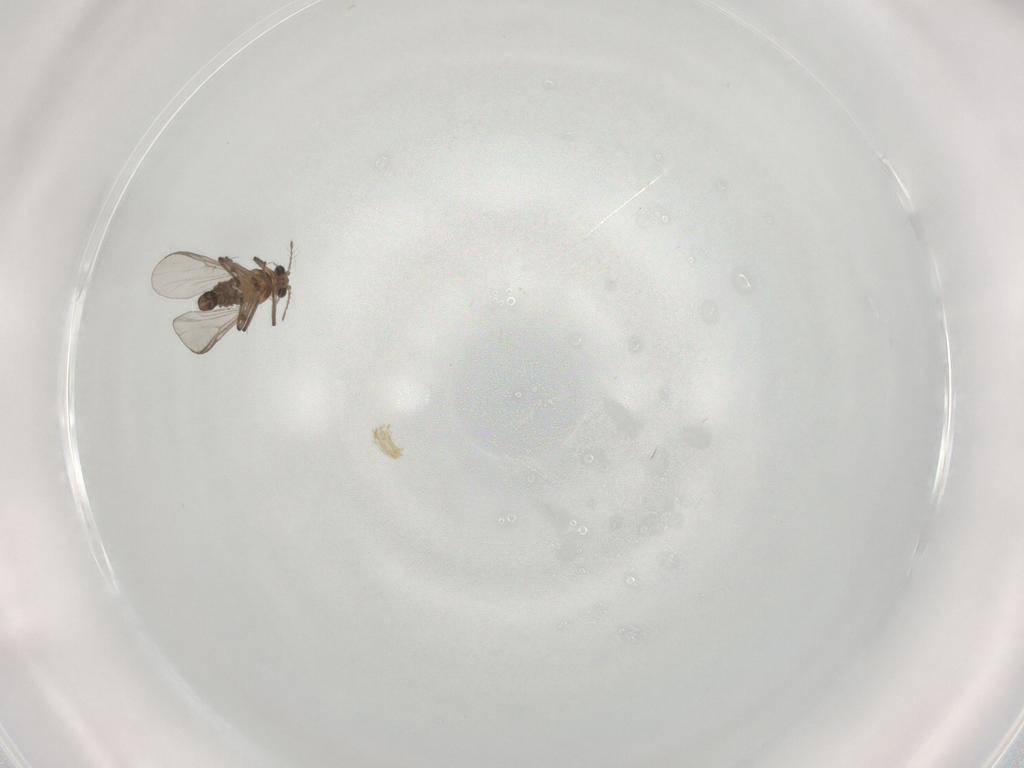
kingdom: Animalia
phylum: Arthropoda
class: Insecta
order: Diptera
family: Chironomidae
